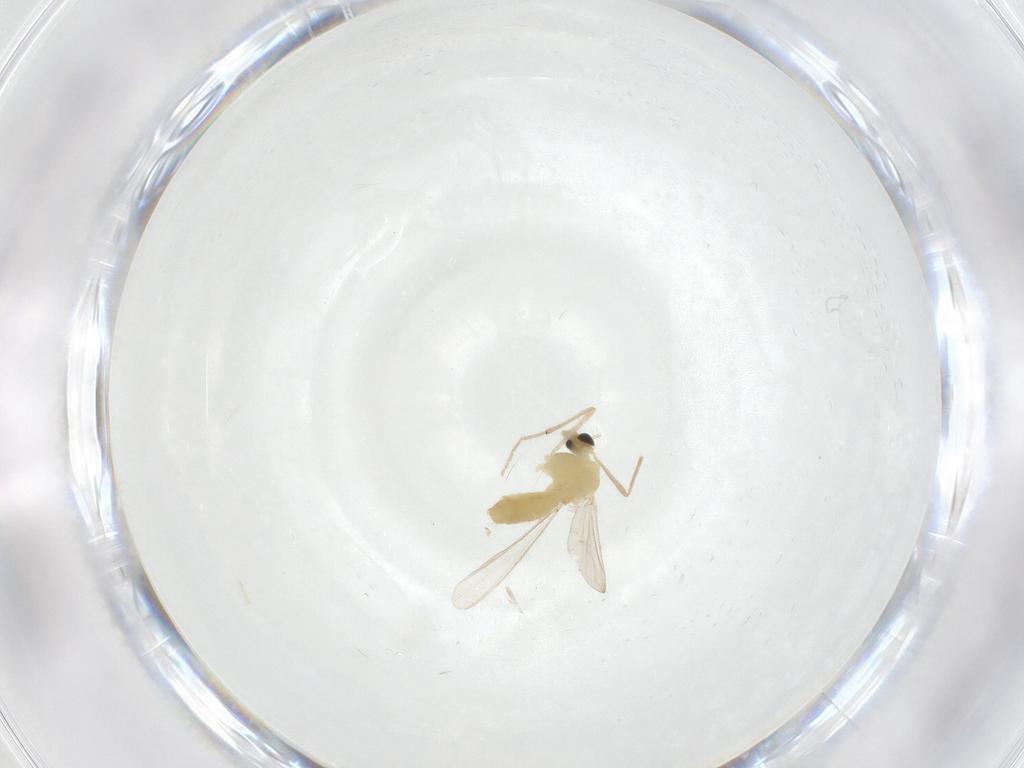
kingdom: Animalia
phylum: Arthropoda
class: Insecta
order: Diptera
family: Chironomidae
